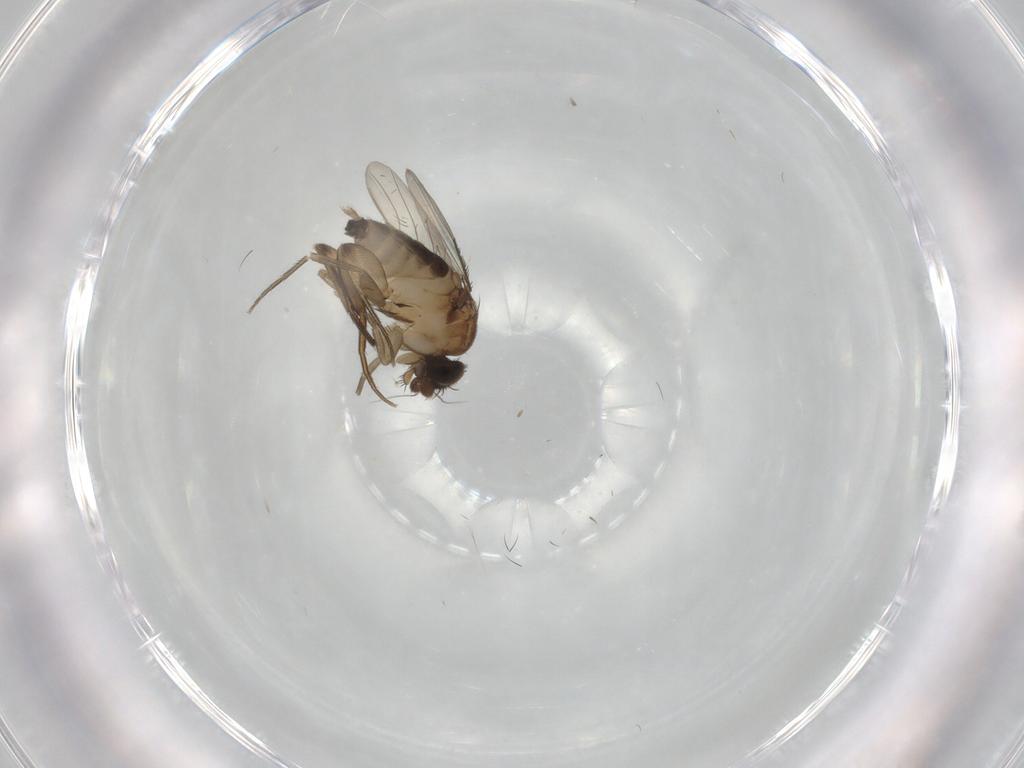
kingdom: Animalia
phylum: Arthropoda
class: Insecta
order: Diptera
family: Phoridae
